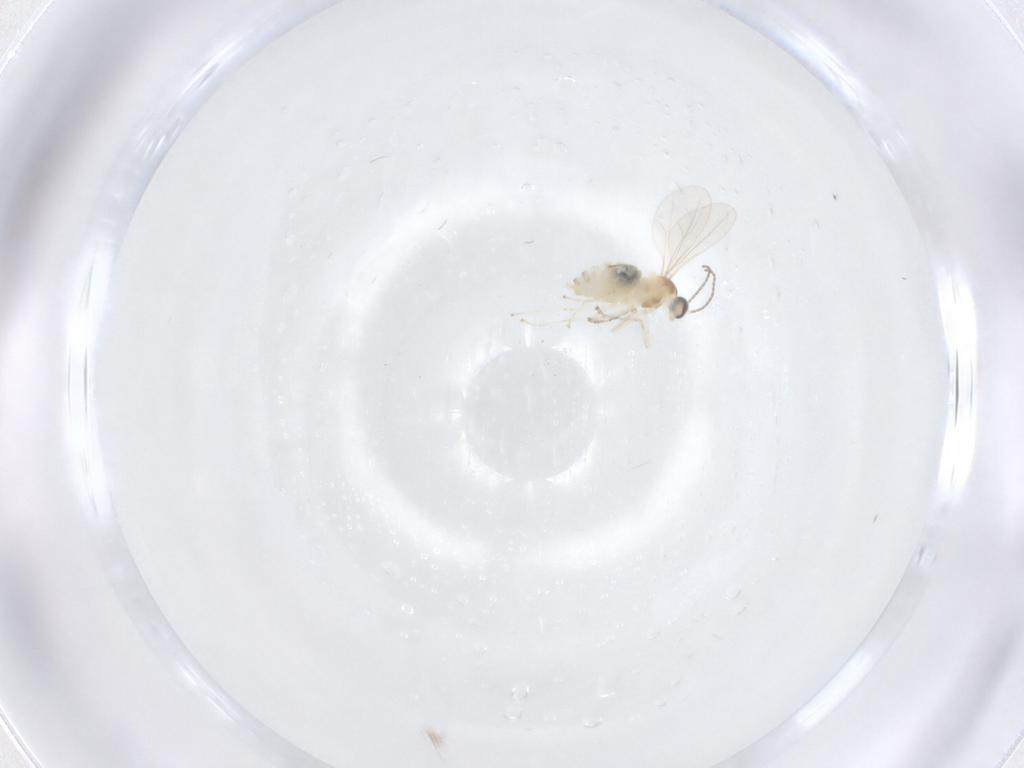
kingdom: Animalia
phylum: Arthropoda
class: Insecta
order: Diptera
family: Cecidomyiidae
